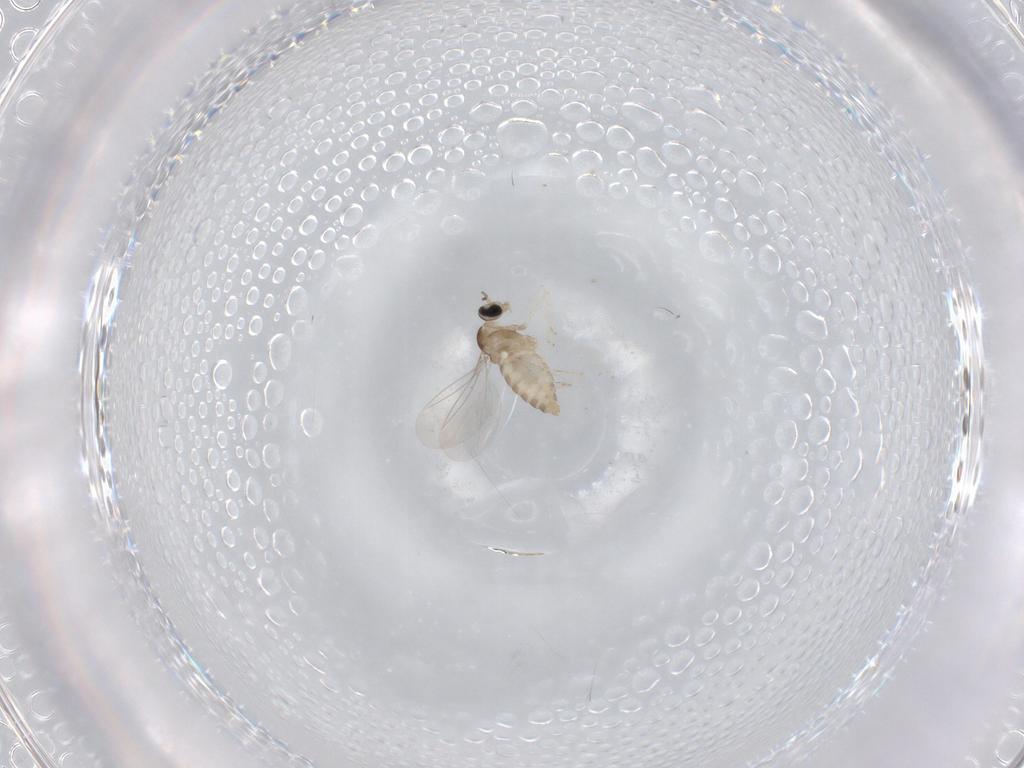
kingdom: Animalia
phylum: Arthropoda
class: Insecta
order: Diptera
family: Cecidomyiidae
